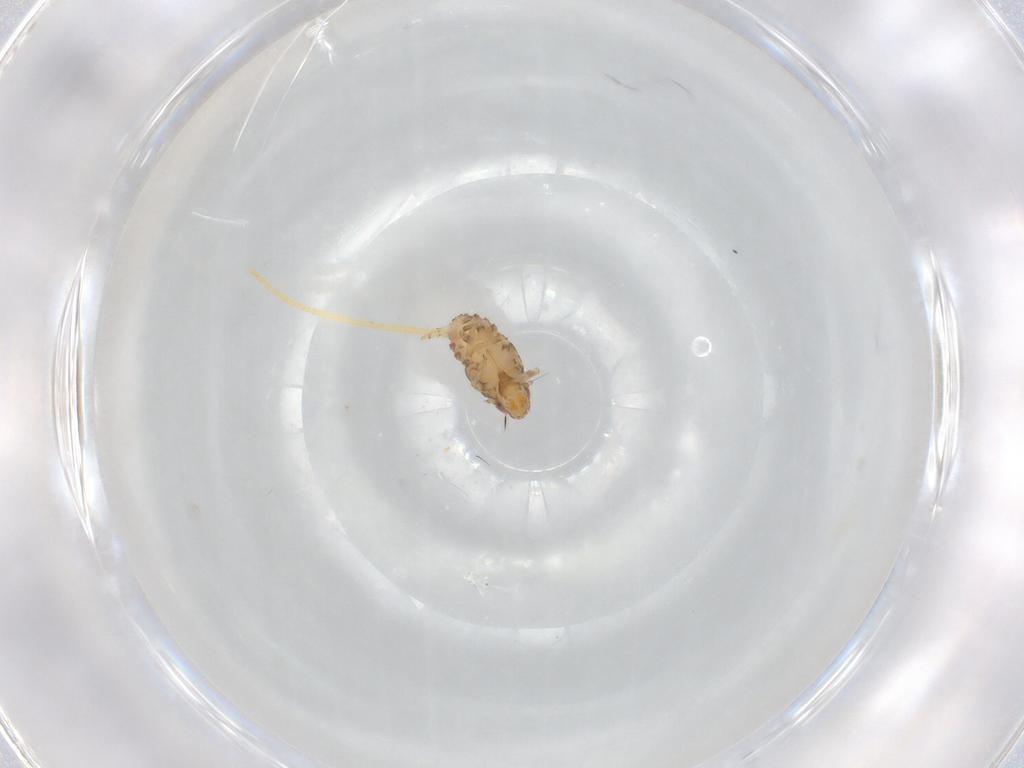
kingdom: Animalia
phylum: Arthropoda
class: Insecta
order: Hemiptera
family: Issidae
